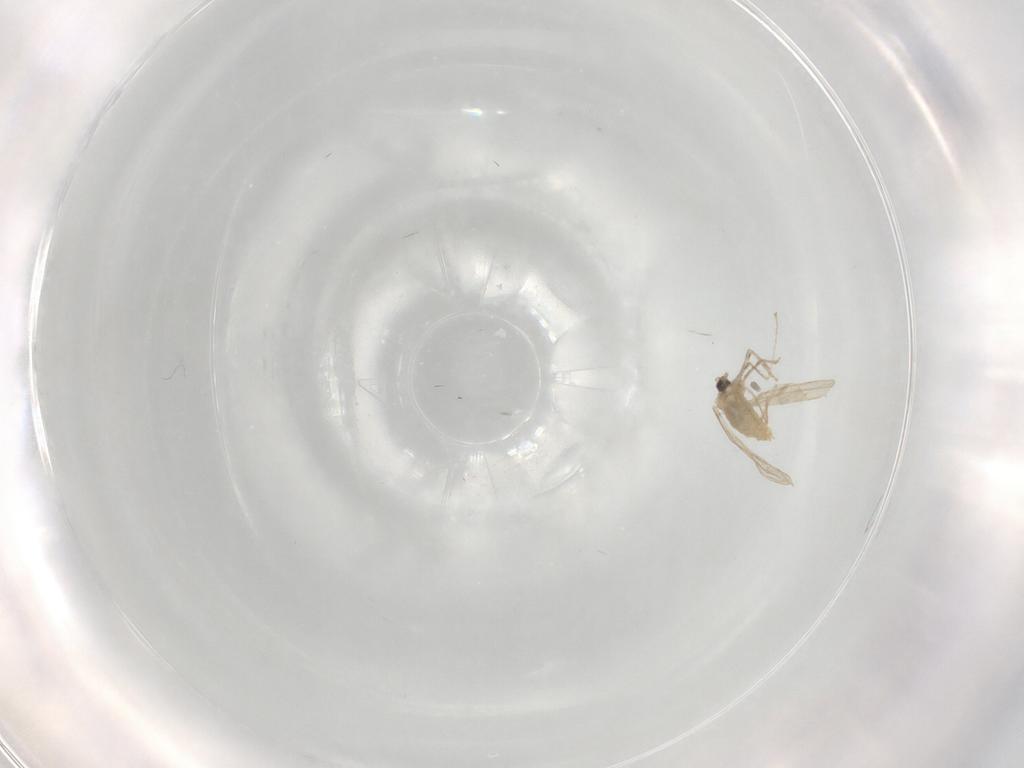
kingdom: Animalia
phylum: Arthropoda
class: Insecta
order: Diptera
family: Cecidomyiidae
